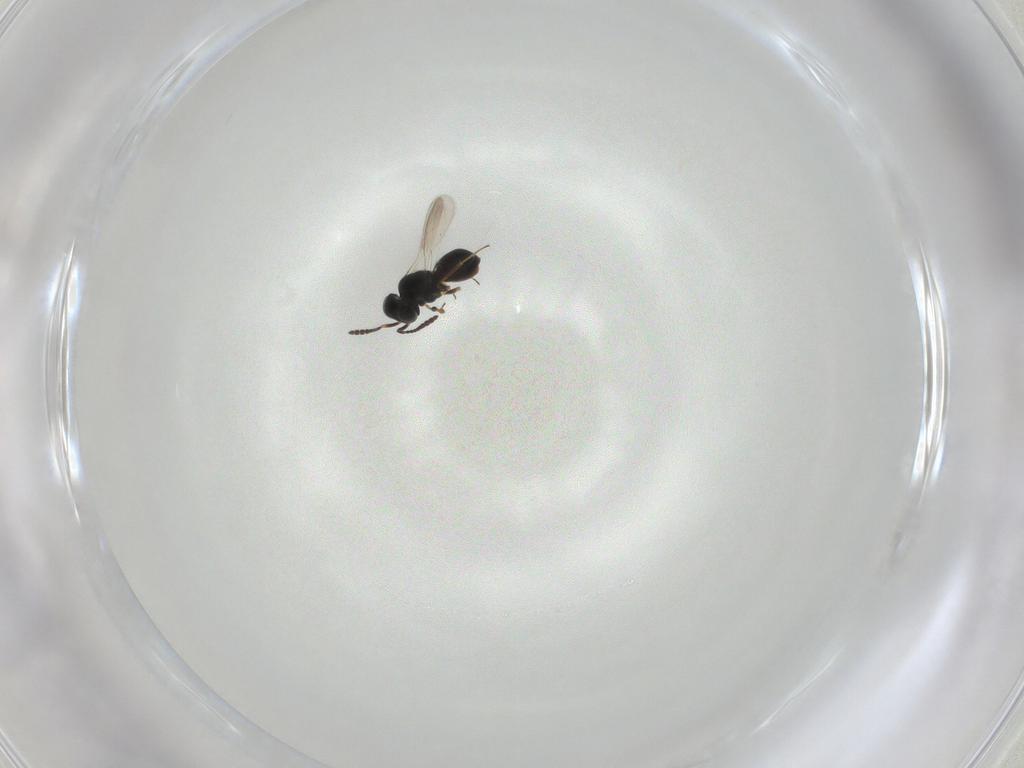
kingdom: Animalia
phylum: Arthropoda
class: Insecta
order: Hymenoptera
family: Scelionidae
